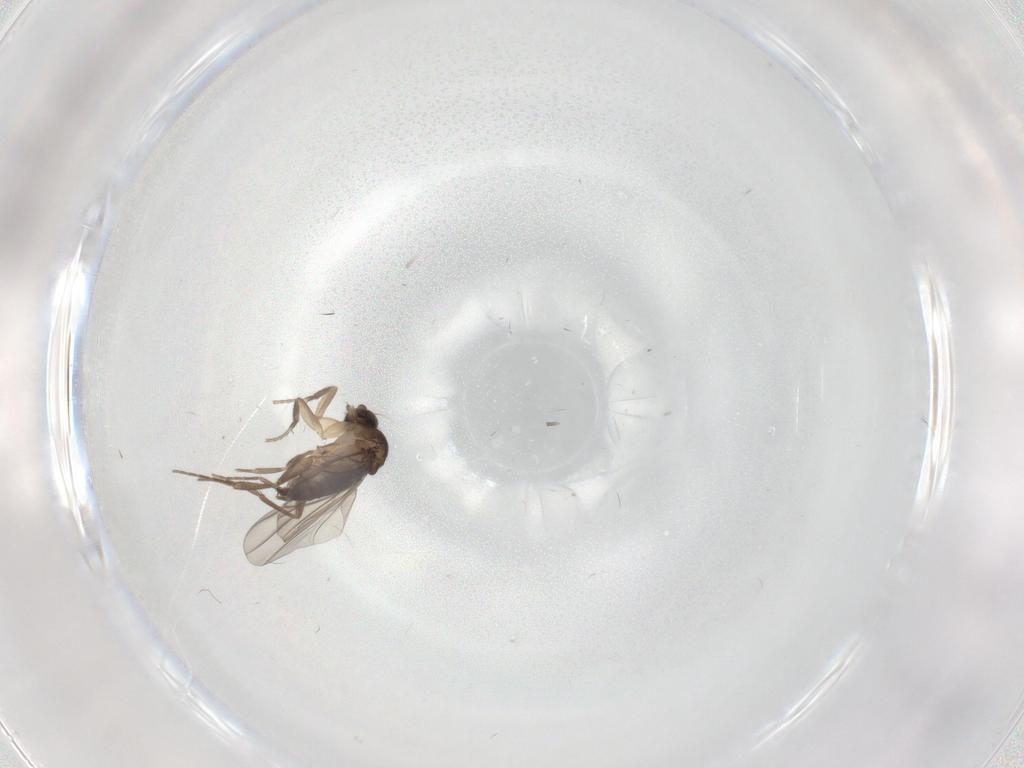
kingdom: Animalia
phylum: Arthropoda
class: Insecta
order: Diptera
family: Phoridae
